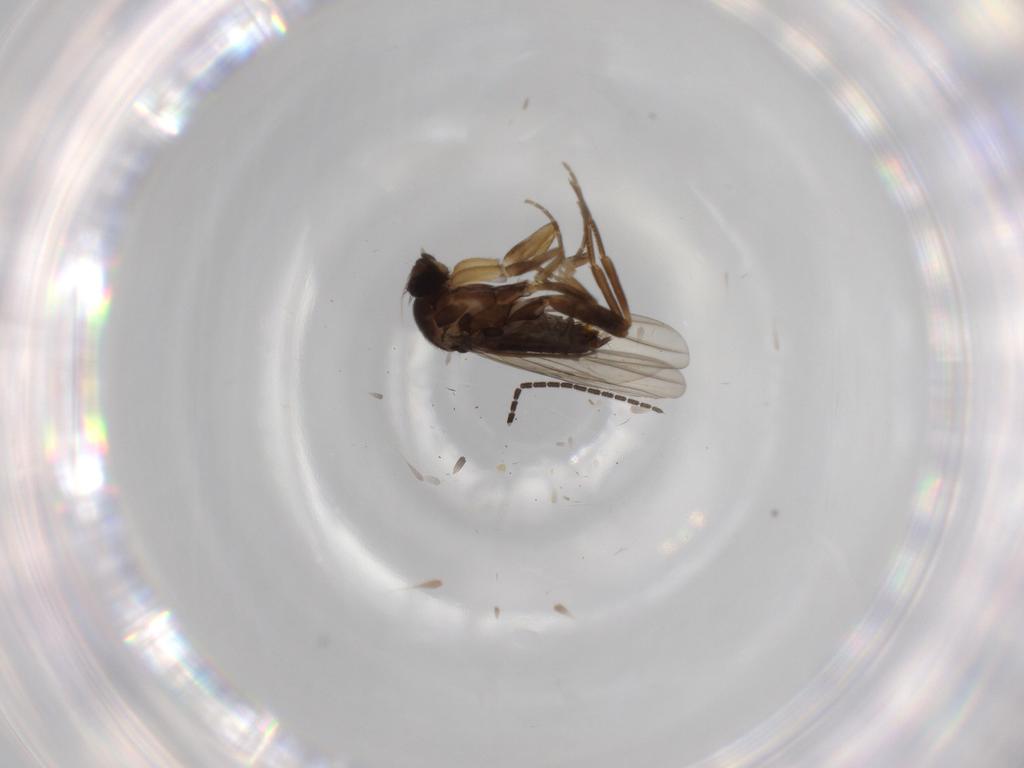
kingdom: Animalia
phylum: Arthropoda
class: Insecta
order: Diptera
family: Phoridae
